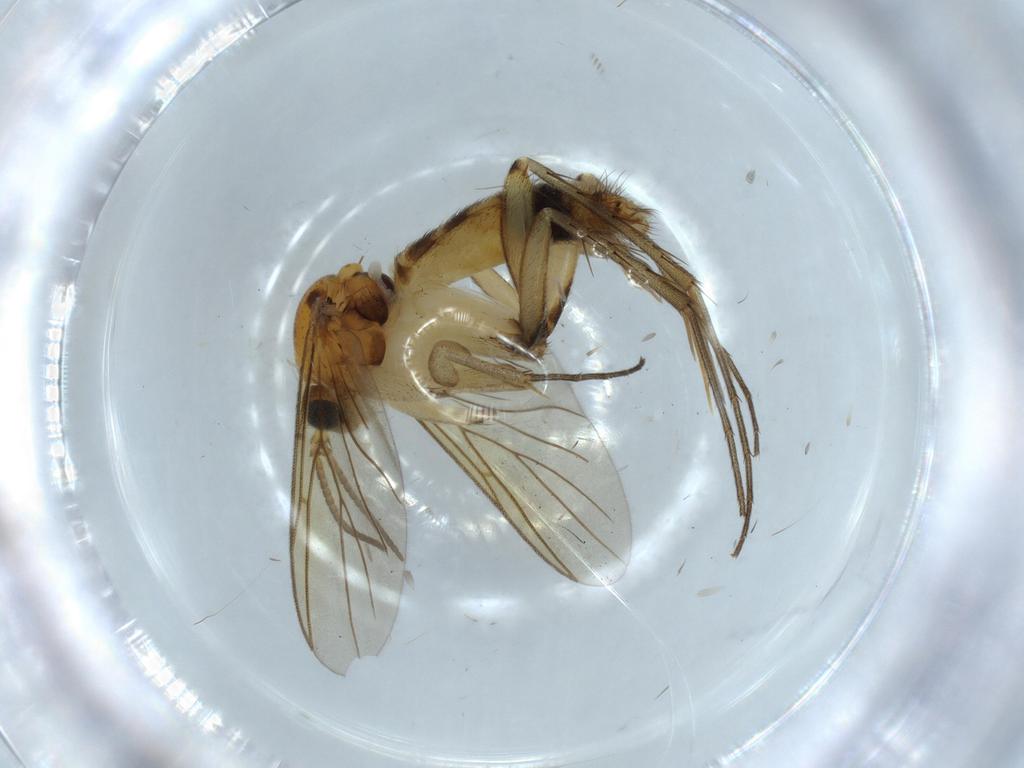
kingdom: Animalia
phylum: Arthropoda
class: Insecta
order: Diptera
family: Mycetophilidae
